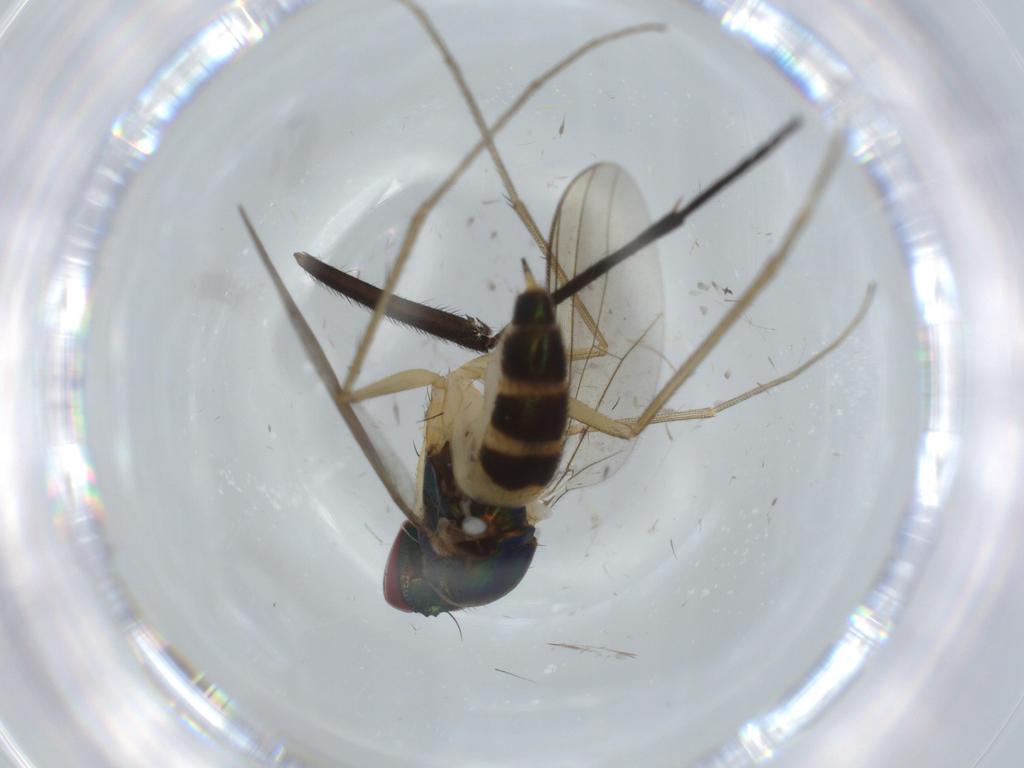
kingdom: Animalia
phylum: Arthropoda
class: Insecta
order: Diptera
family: Dolichopodidae
